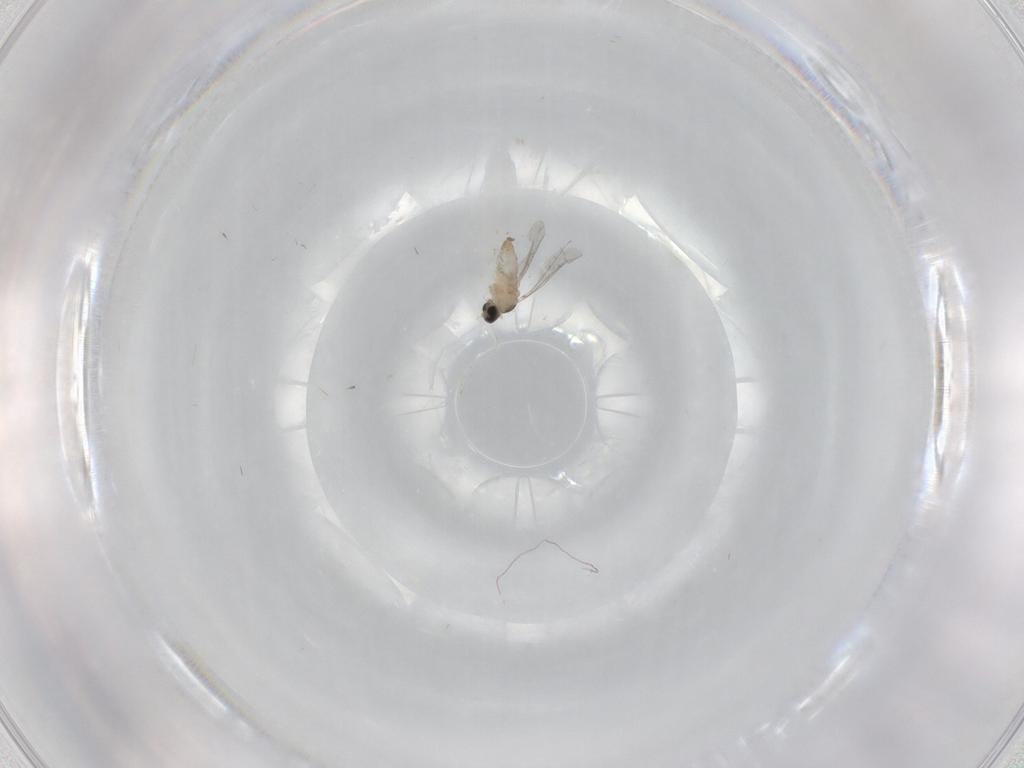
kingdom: Animalia
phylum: Arthropoda
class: Insecta
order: Diptera
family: Cecidomyiidae
